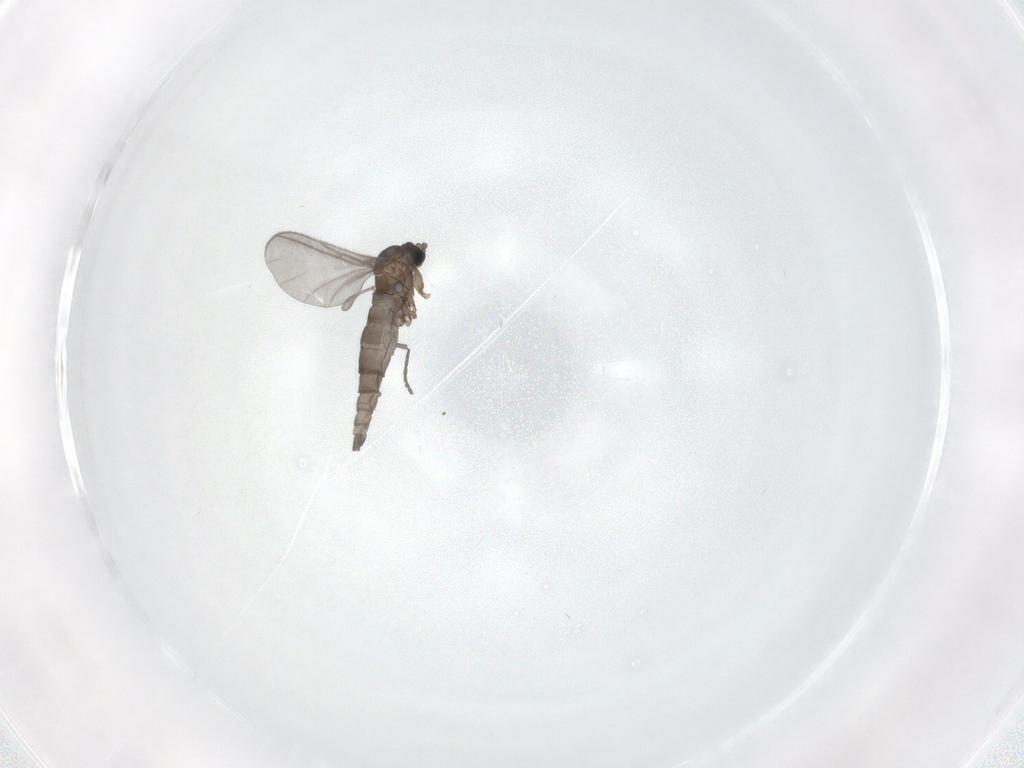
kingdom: Animalia
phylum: Arthropoda
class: Insecta
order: Diptera
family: Sciaridae
